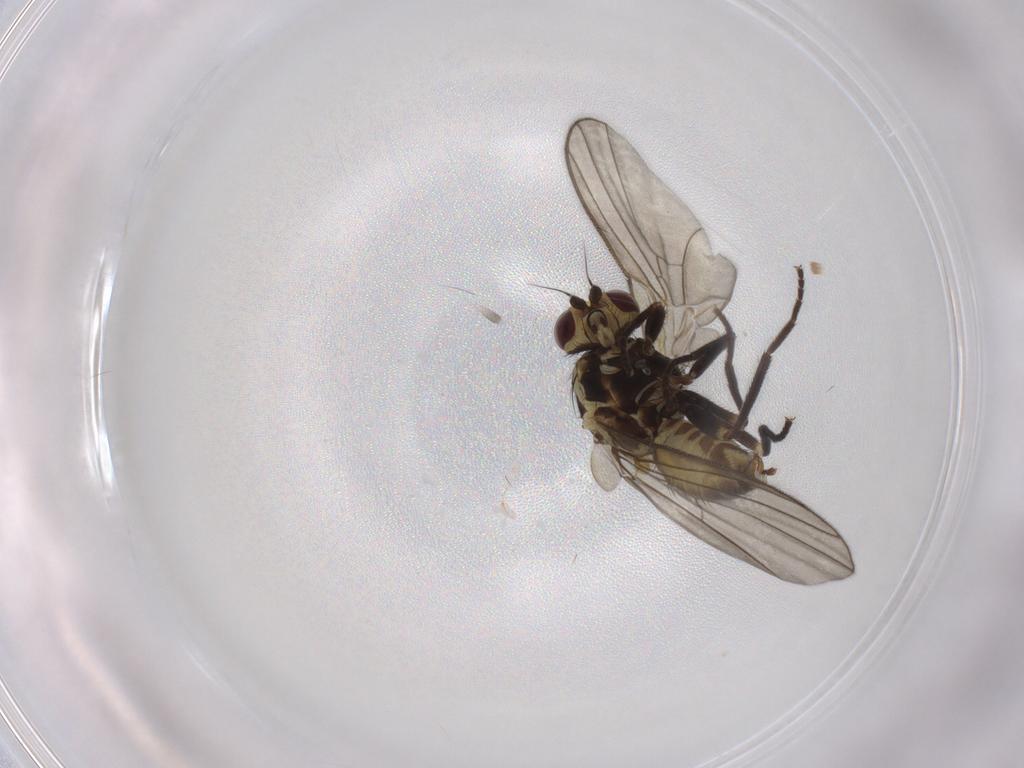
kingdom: Animalia
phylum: Arthropoda
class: Insecta
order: Diptera
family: Agromyzidae
